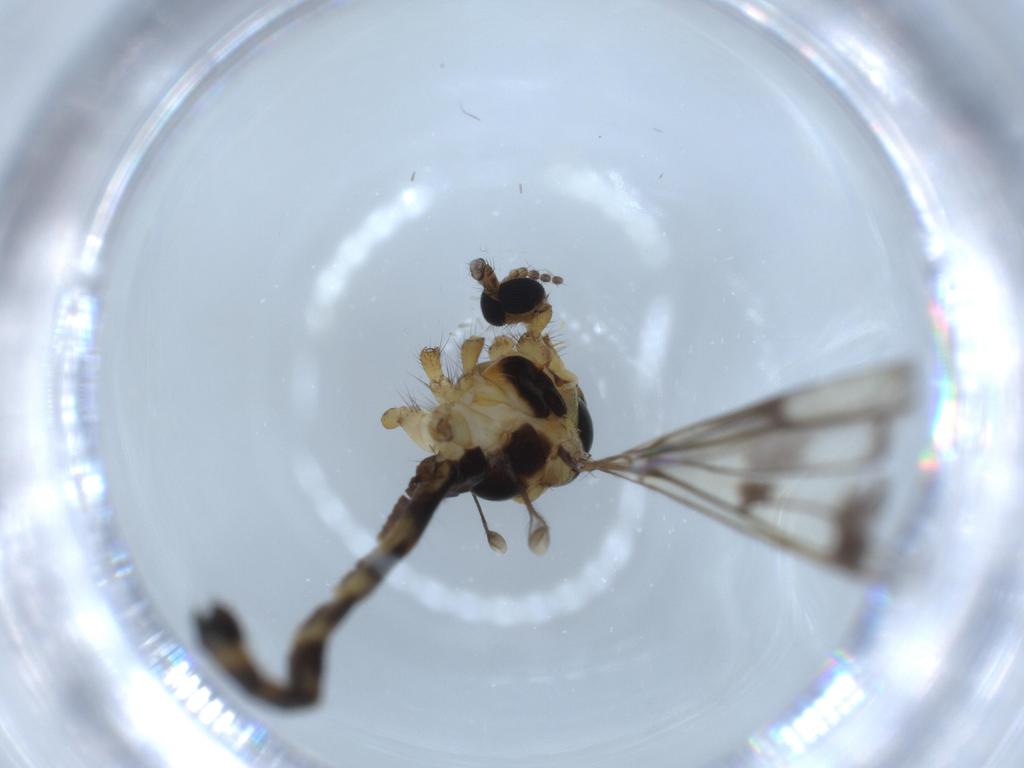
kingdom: Animalia
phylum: Arthropoda
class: Insecta
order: Diptera
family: Limoniidae
